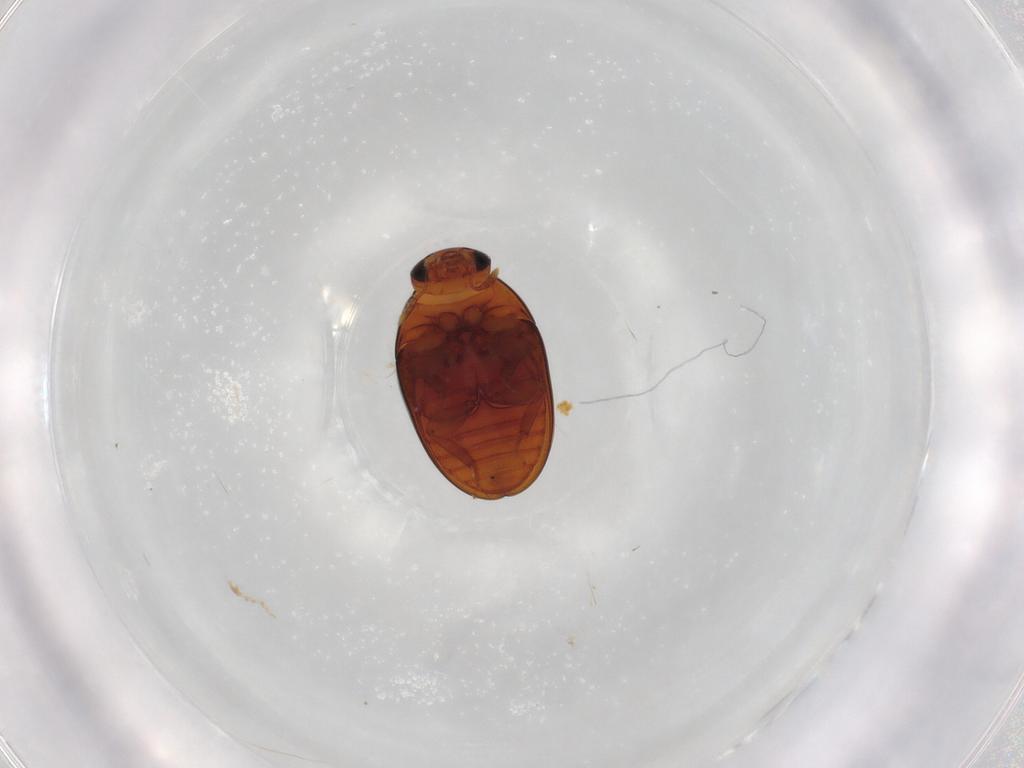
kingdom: Animalia
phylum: Arthropoda
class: Insecta
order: Coleoptera
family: Phalacridae
